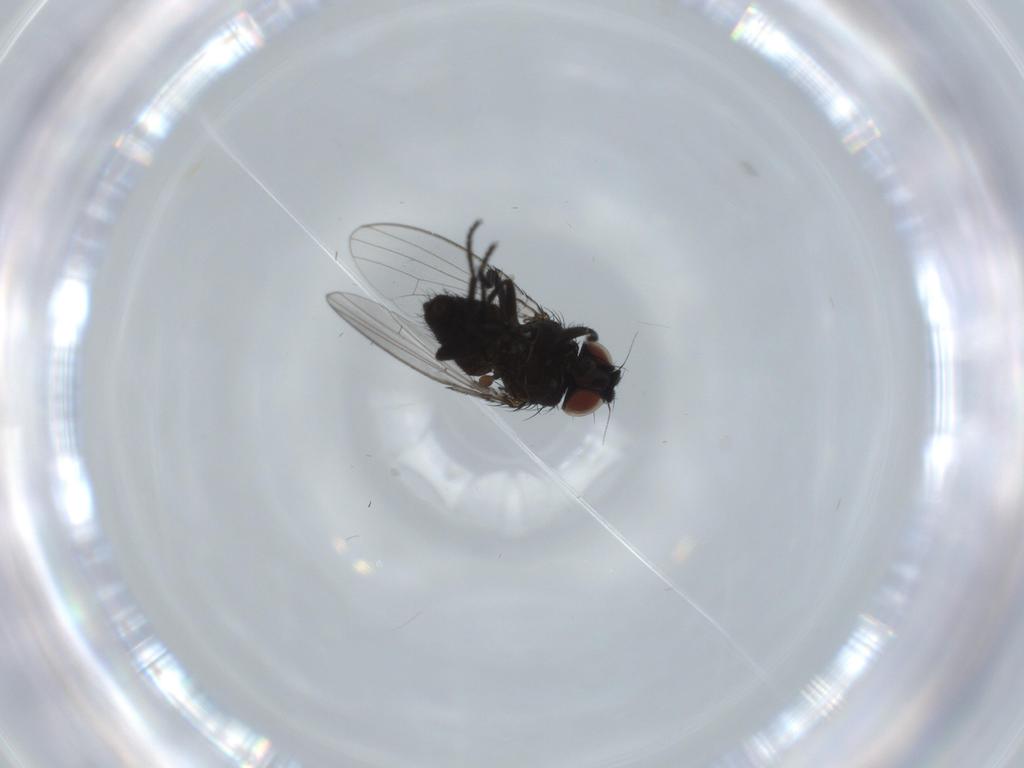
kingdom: Animalia
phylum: Arthropoda
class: Insecta
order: Diptera
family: Milichiidae
